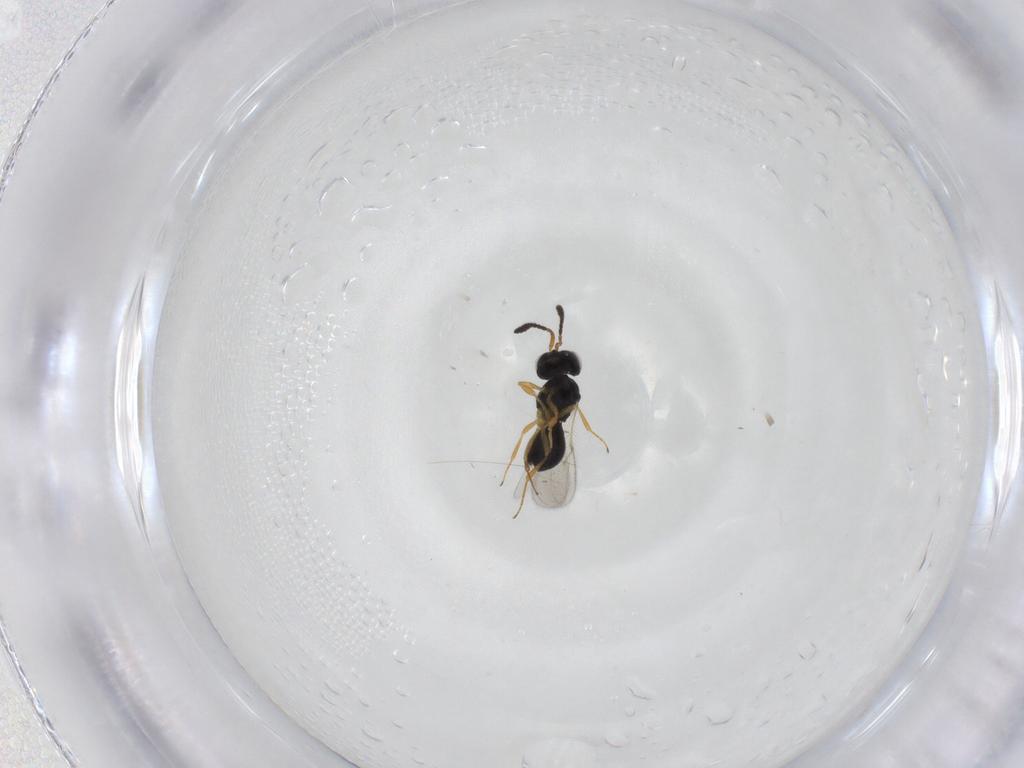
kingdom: Animalia
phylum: Arthropoda
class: Insecta
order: Hymenoptera
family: Scelionidae
